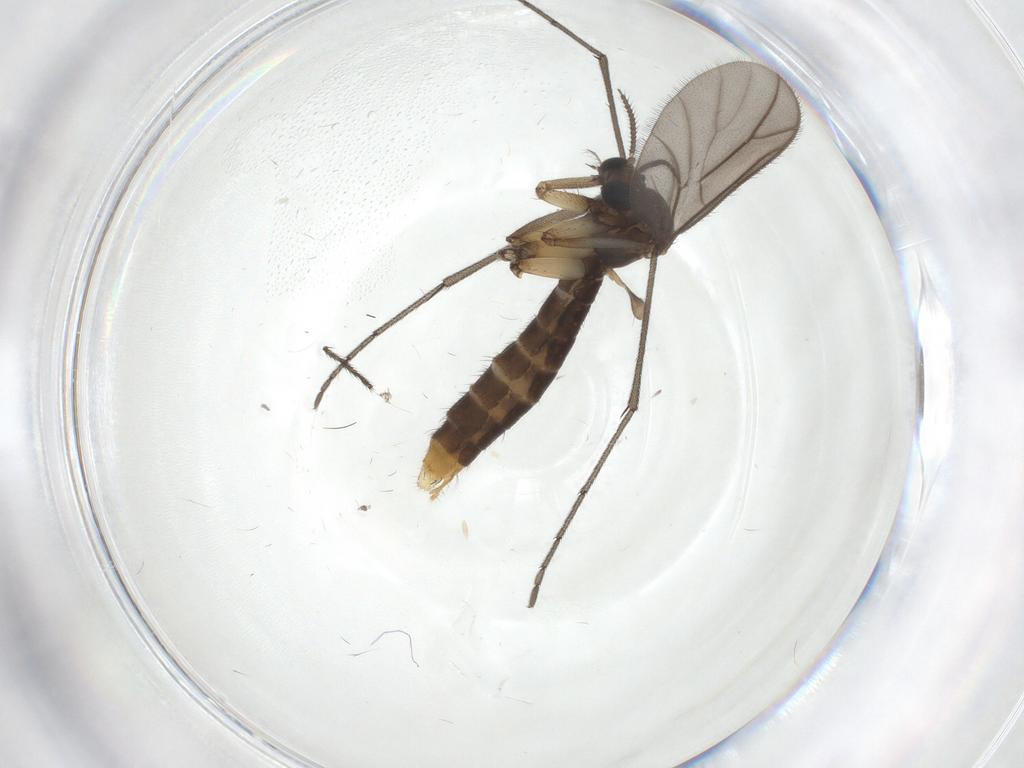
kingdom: Animalia
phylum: Arthropoda
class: Insecta
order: Diptera
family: Ditomyiidae
